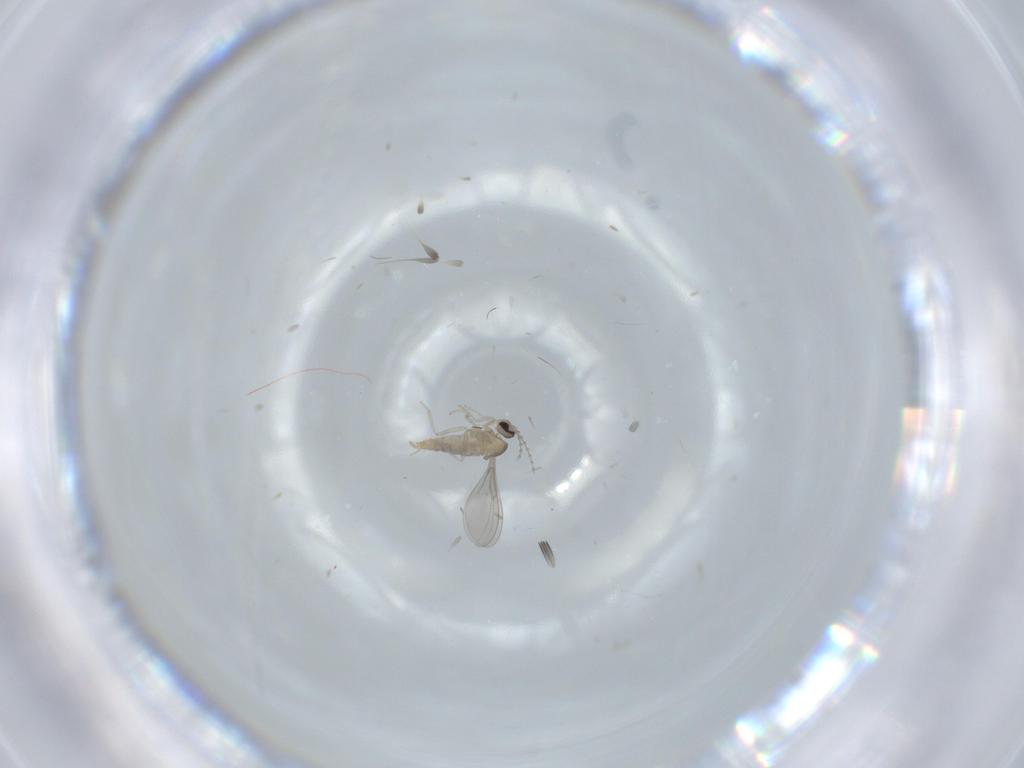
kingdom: Animalia
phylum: Arthropoda
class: Insecta
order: Diptera
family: Cecidomyiidae
